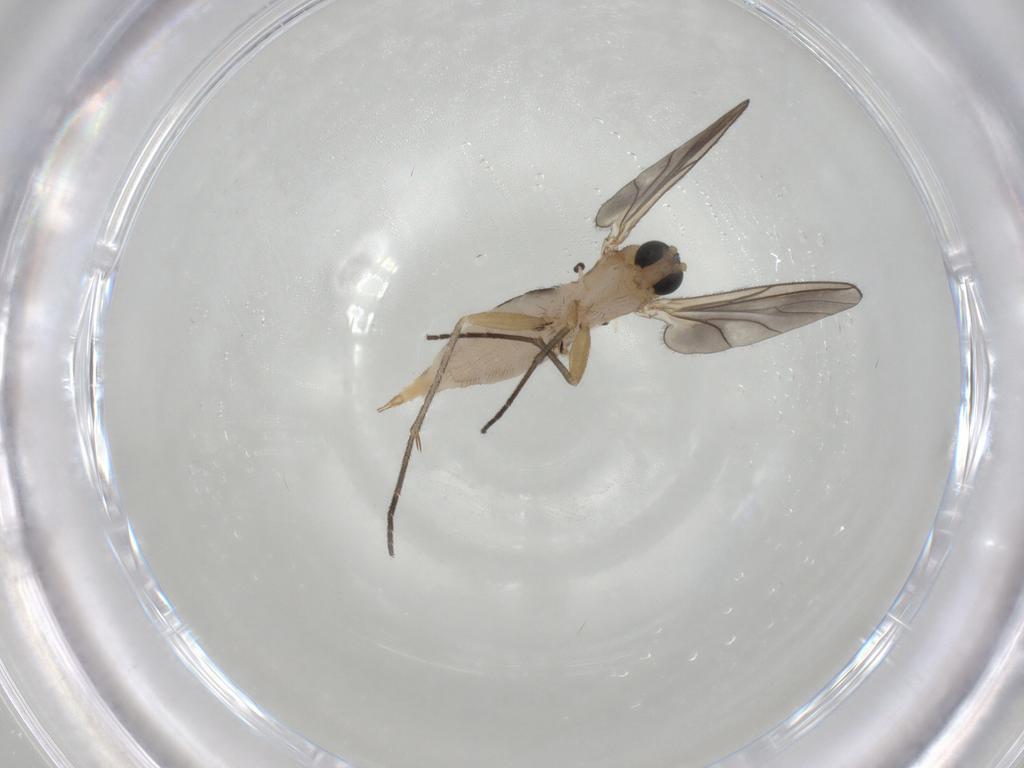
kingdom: Animalia
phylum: Arthropoda
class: Insecta
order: Diptera
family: Sciaridae
